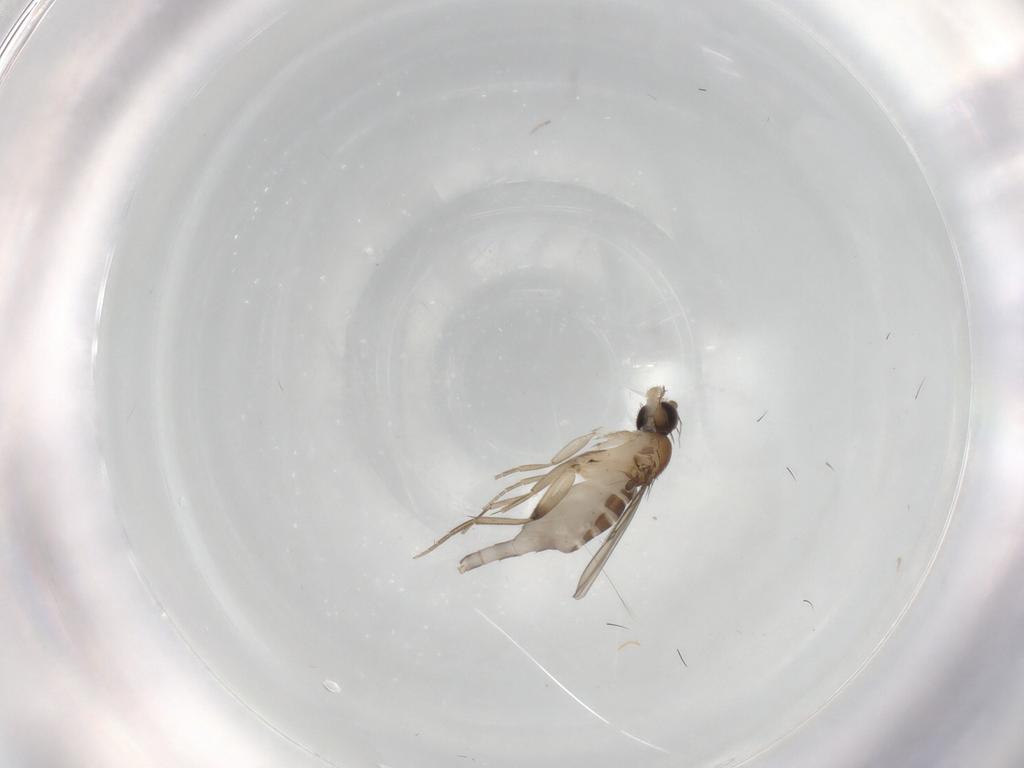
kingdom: Animalia
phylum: Arthropoda
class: Insecta
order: Diptera
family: Phoridae
